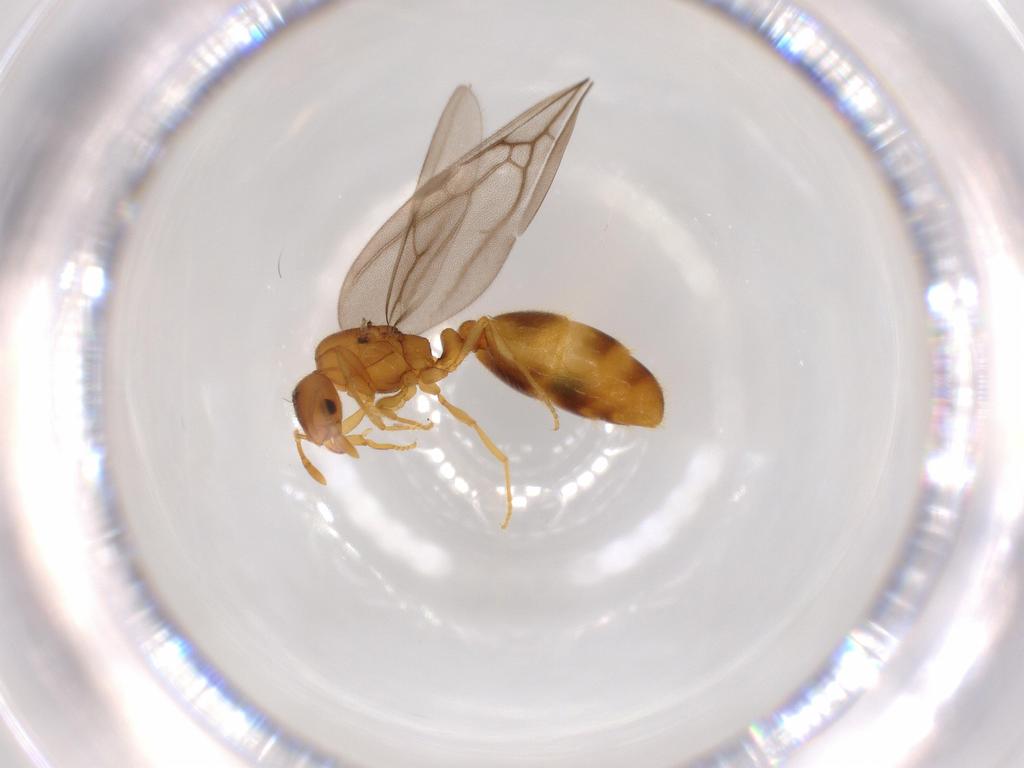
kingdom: Animalia
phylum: Arthropoda
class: Insecta
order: Hymenoptera
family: Formicidae
